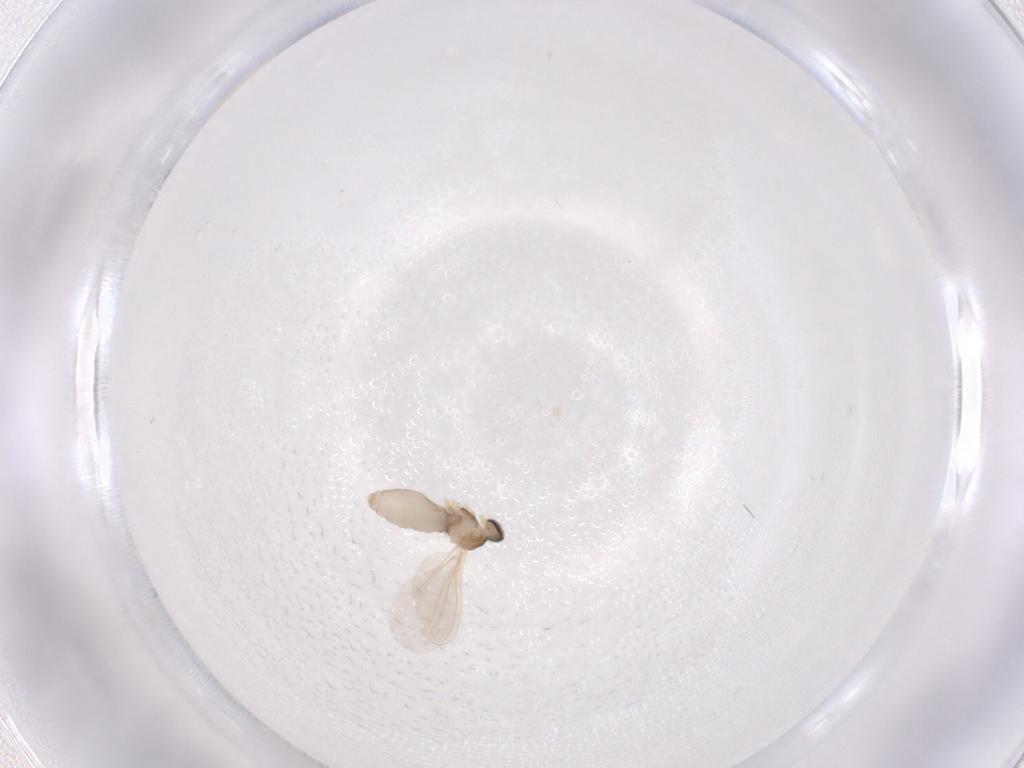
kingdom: Animalia
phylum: Arthropoda
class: Insecta
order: Diptera
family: Cecidomyiidae
